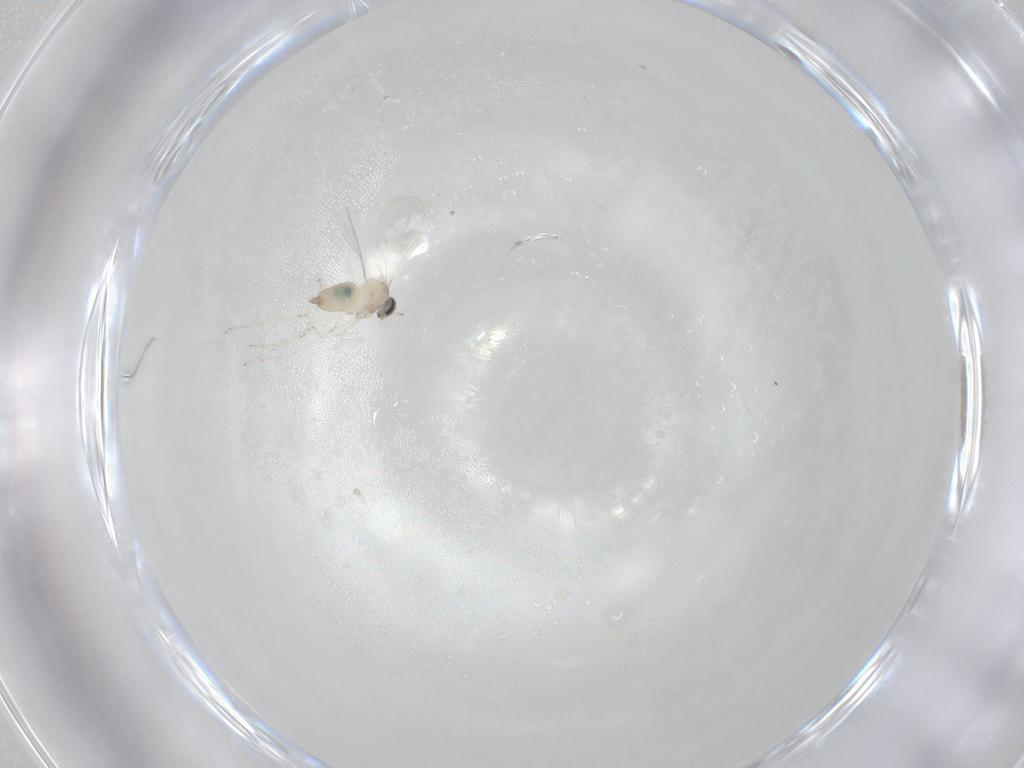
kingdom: Animalia
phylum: Arthropoda
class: Insecta
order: Diptera
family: Cecidomyiidae
